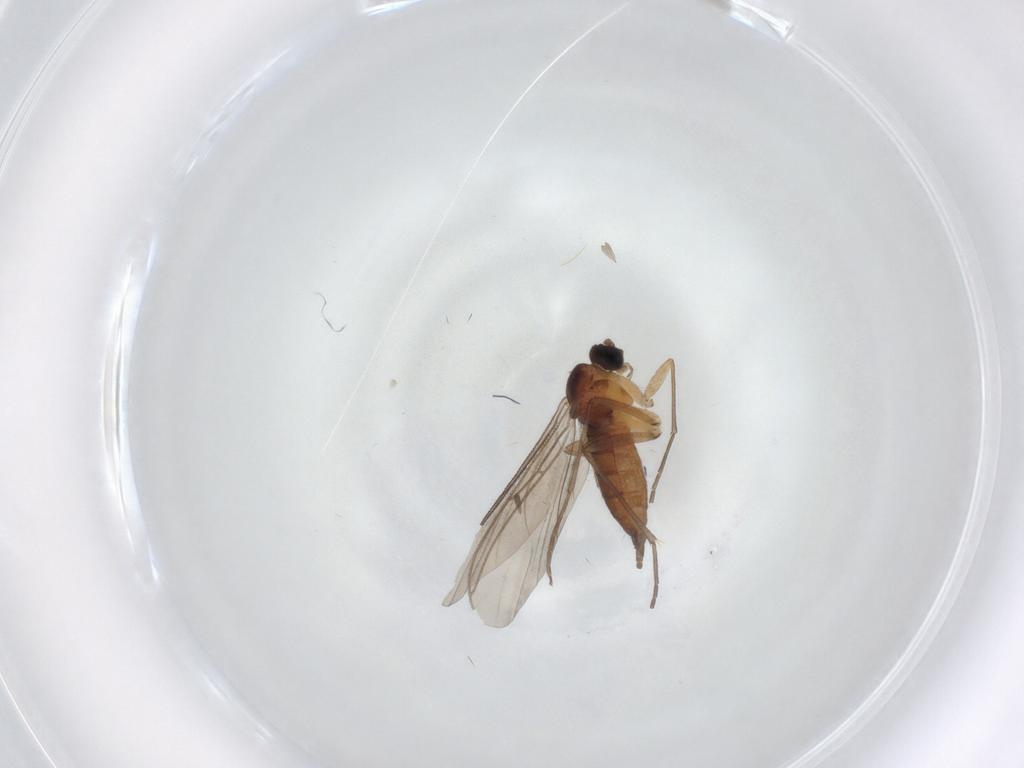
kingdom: Animalia
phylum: Arthropoda
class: Insecta
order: Diptera
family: Sciaridae
